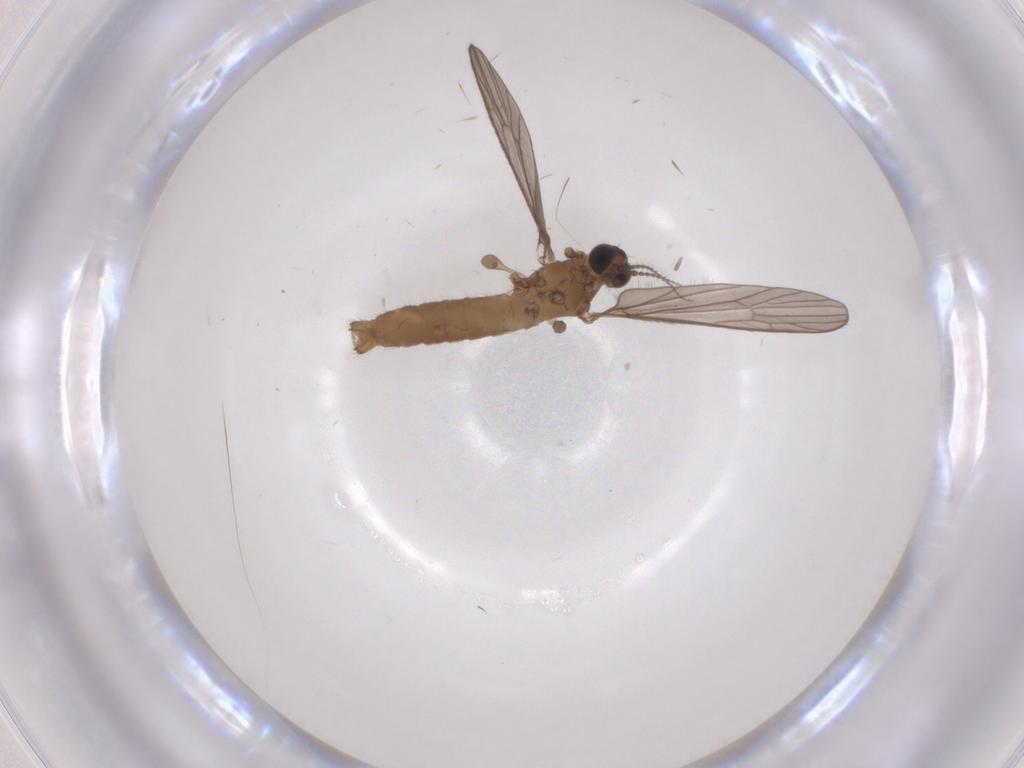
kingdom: Animalia
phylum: Arthropoda
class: Insecta
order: Diptera
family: Limoniidae
